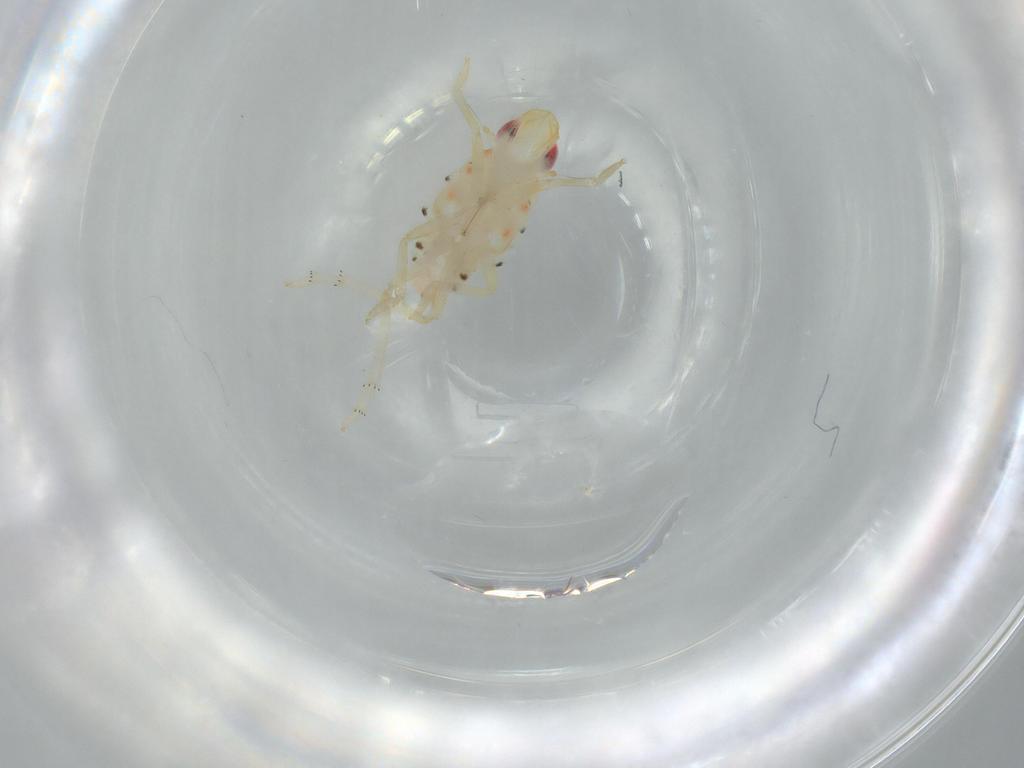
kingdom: Animalia
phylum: Arthropoda
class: Insecta
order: Hemiptera
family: Tropiduchidae
